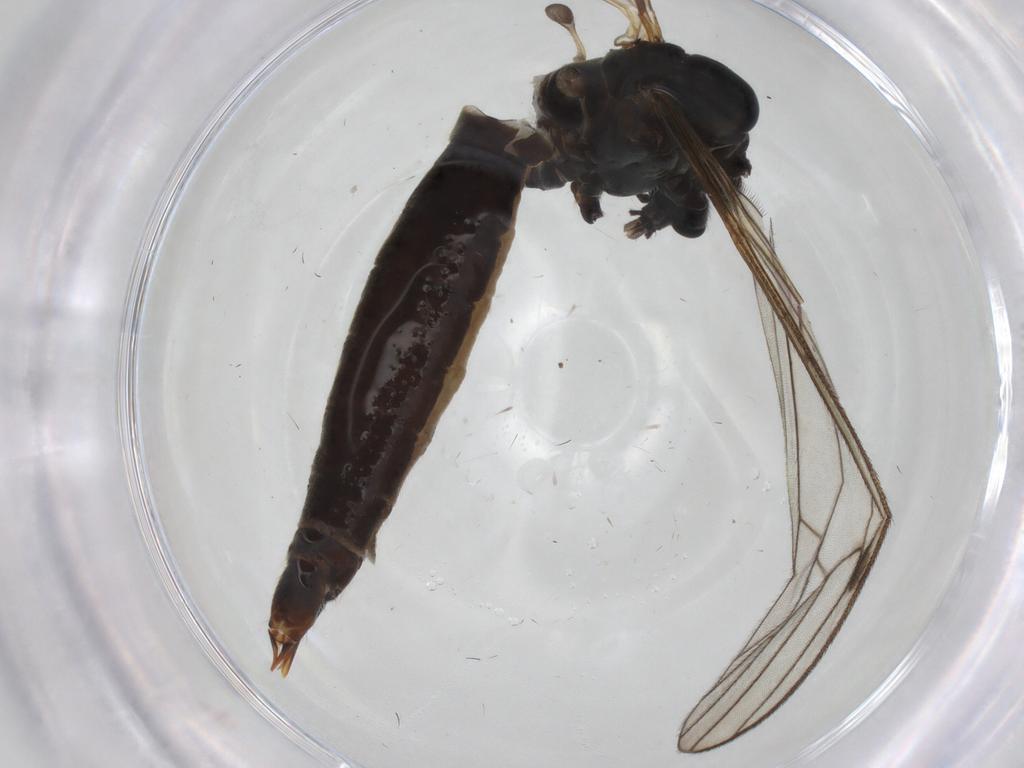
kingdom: Animalia
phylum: Arthropoda
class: Insecta
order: Diptera
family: Limoniidae
